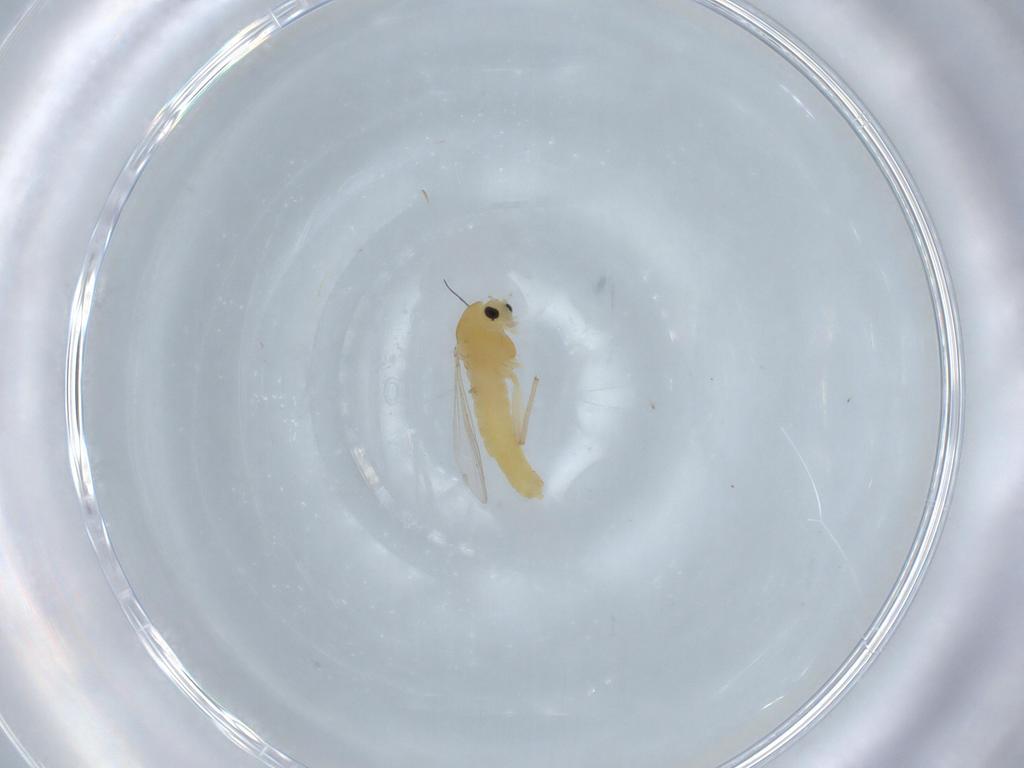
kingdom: Animalia
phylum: Arthropoda
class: Insecta
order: Diptera
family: Chironomidae
